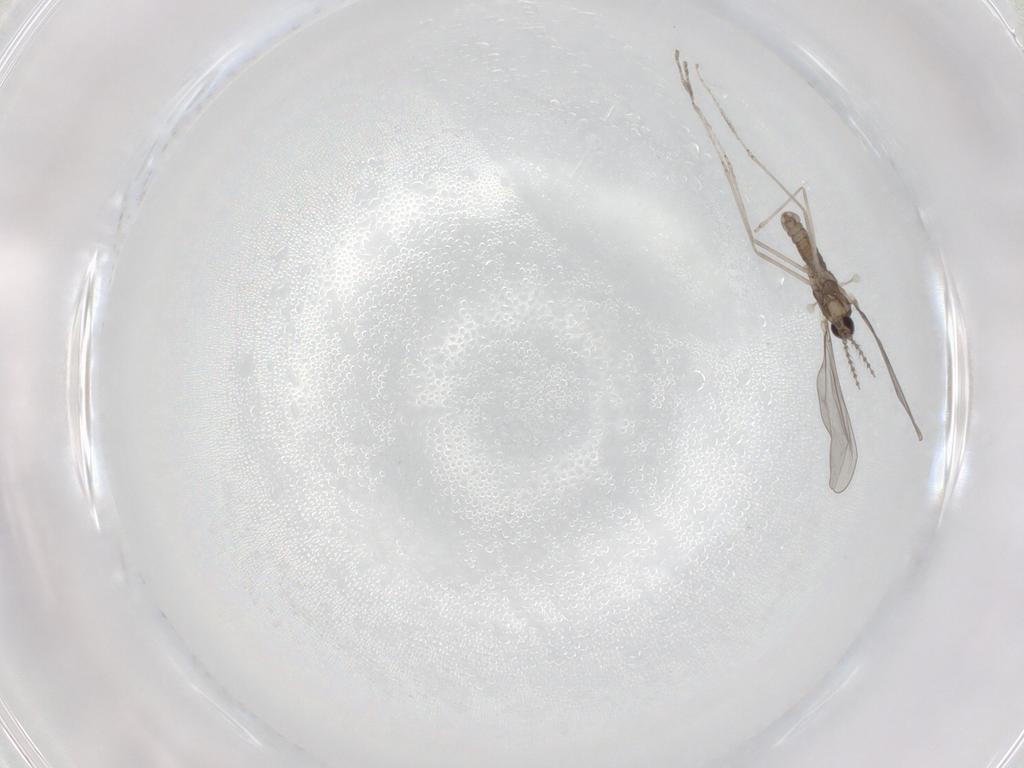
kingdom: Animalia
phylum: Arthropoda
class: Insecta
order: Diptera
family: Cecidomyiidae
